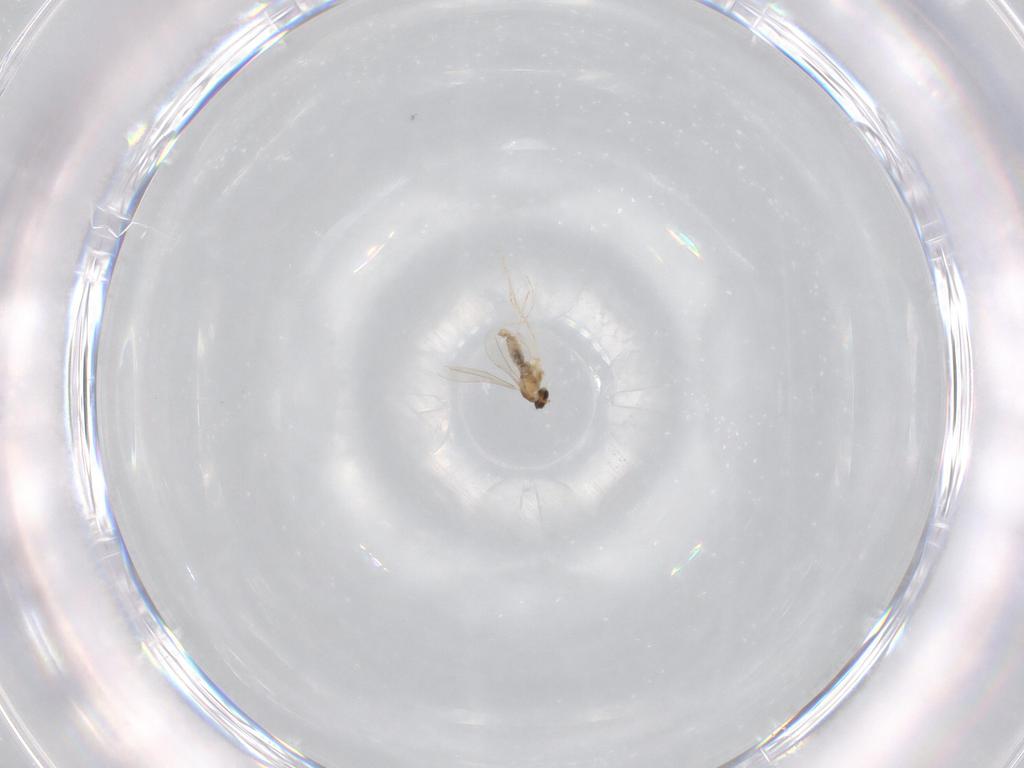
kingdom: Animalia
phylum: Arthropoda
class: Insecta
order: Diptera
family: Cecidomyiidae
